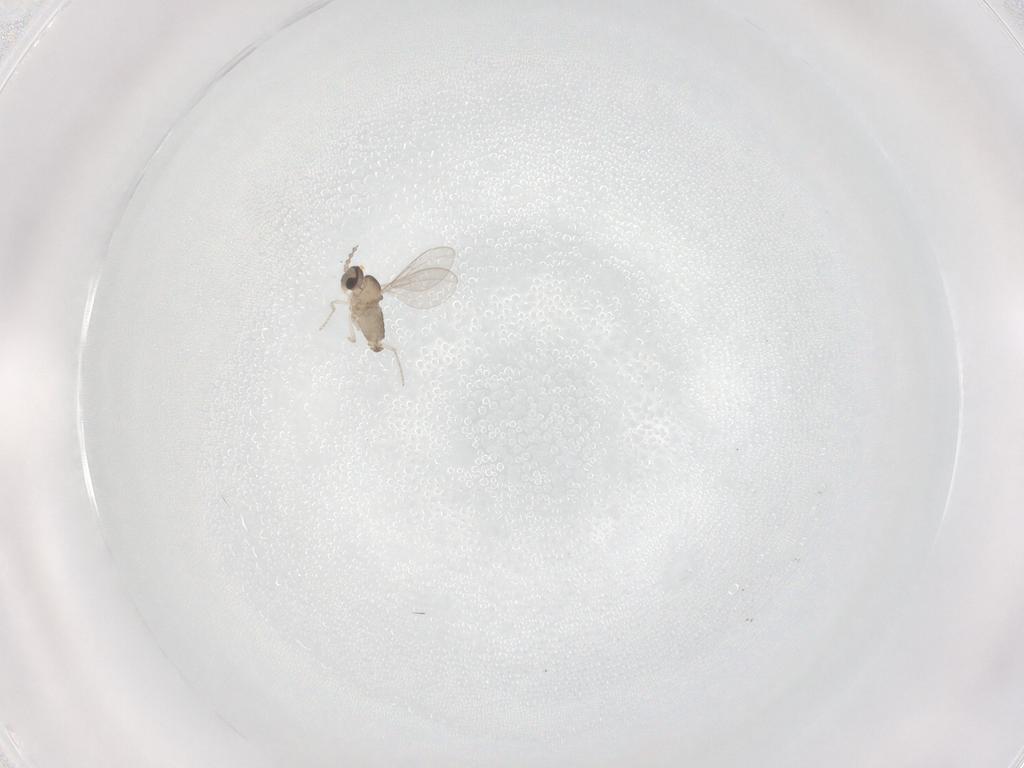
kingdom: Animalia
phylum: Arthropoda
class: Insecta
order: Diptera
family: Cecidomyiidae
